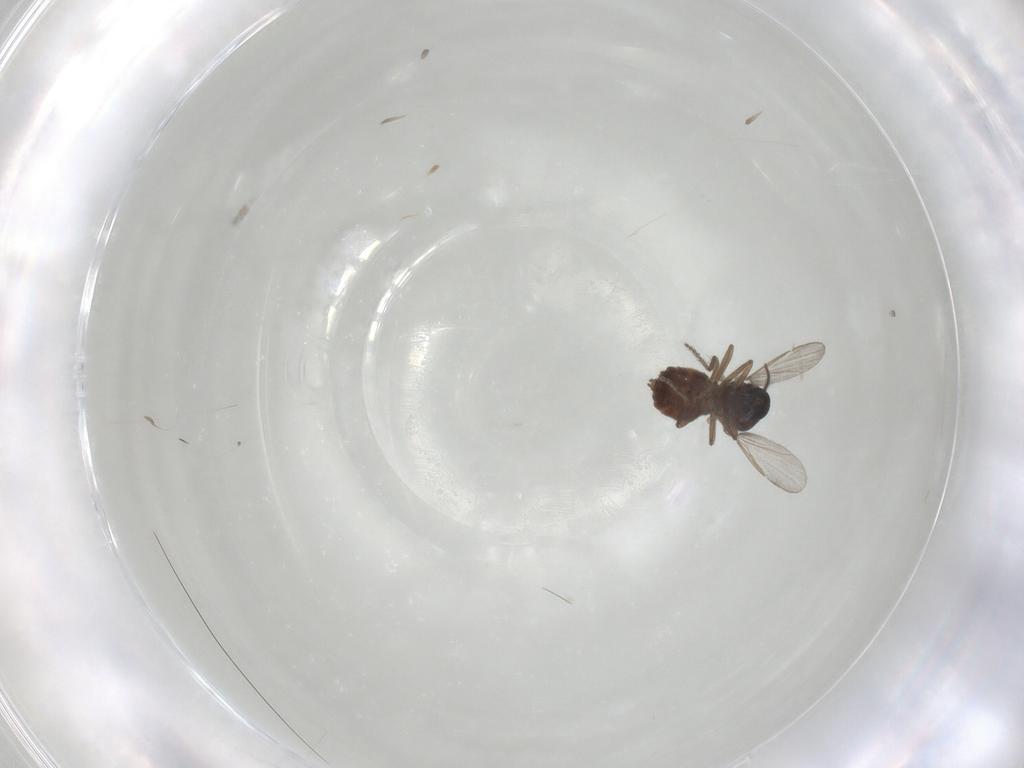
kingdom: Animalia
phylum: Arthropoda
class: Insecta
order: Diptera
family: Ceratopogonidae
